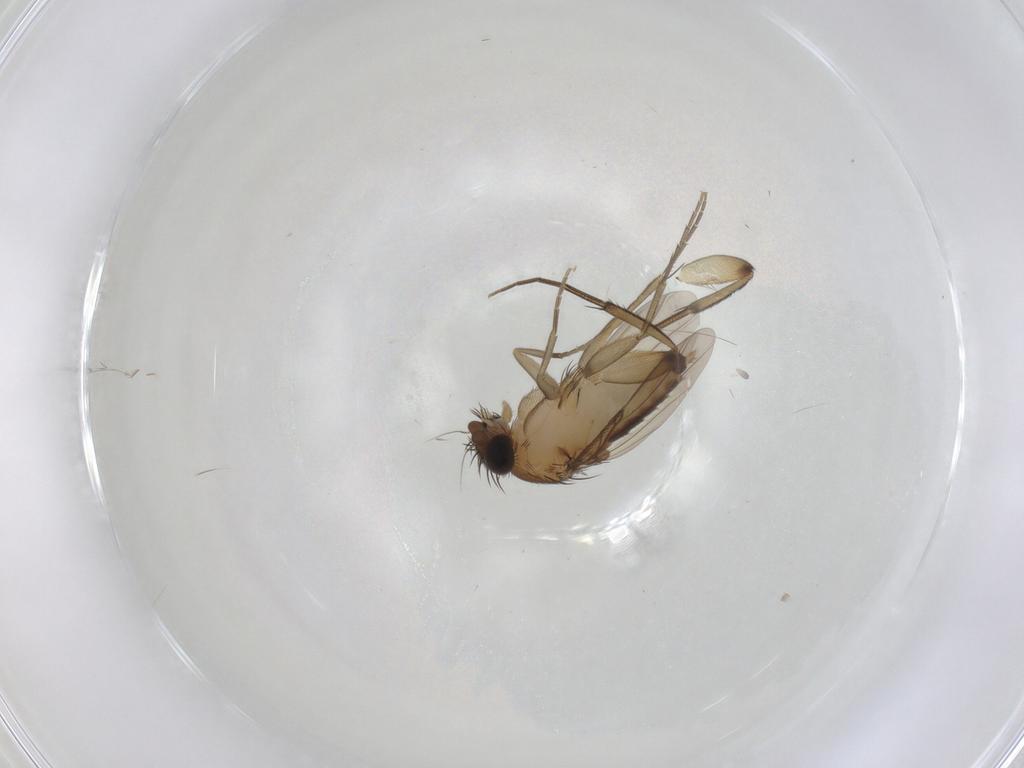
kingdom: Animalia
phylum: Arthropoda
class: Insecta
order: Diptera
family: Phoridae
